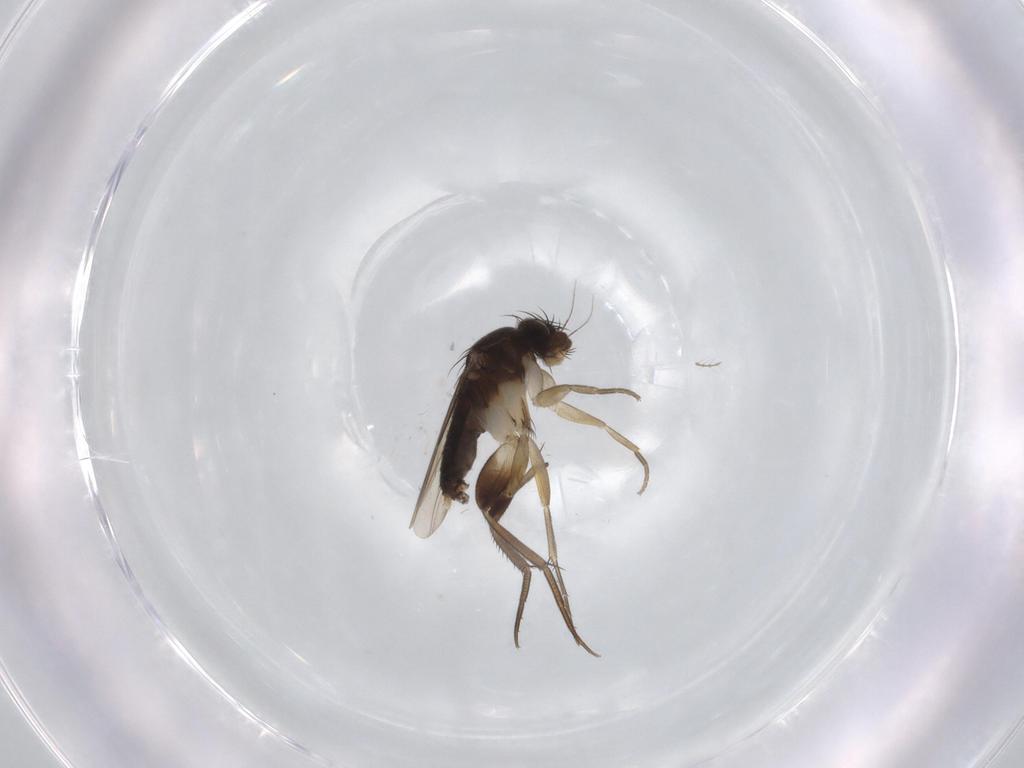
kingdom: Animalia
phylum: Arthropoda
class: Insecta
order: Diptera
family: Phoridae
